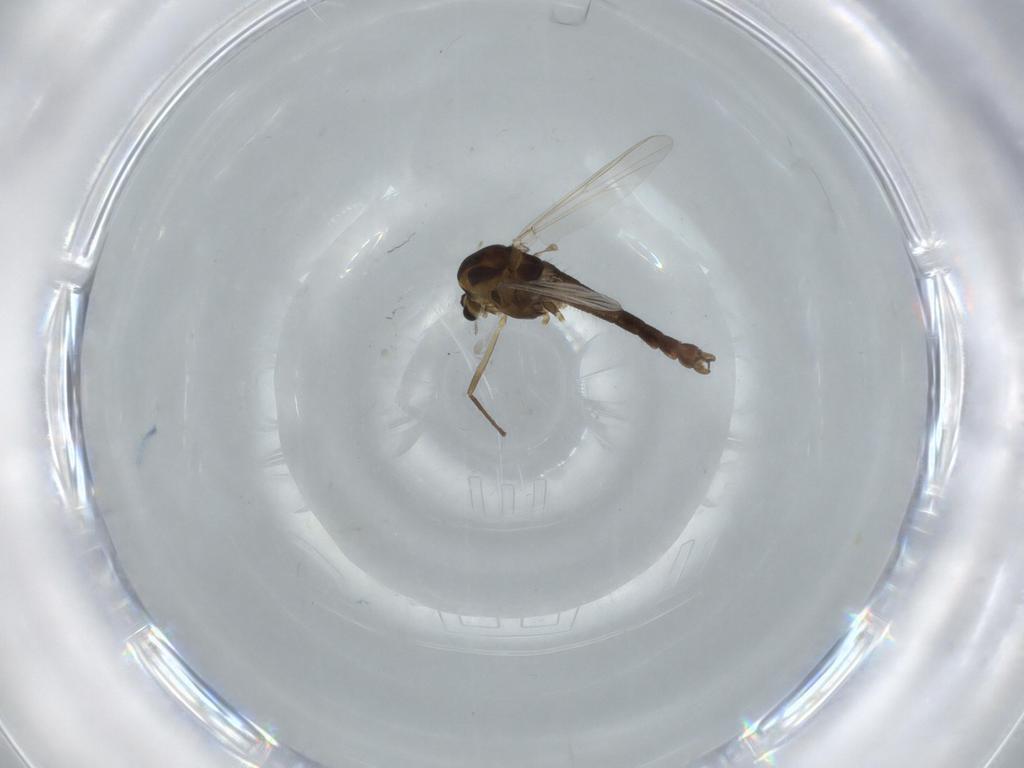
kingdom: Animalia
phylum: Arthropoda
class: Insecta
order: Diptera
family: Chironomidae
